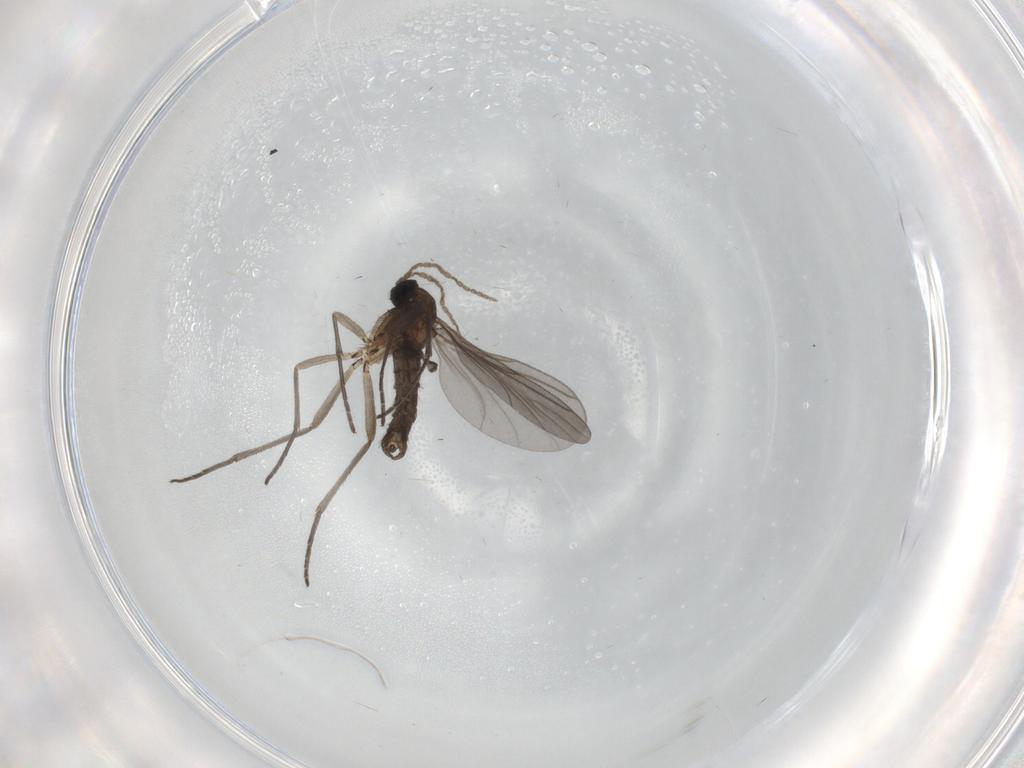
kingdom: Animalia
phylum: Arthropoda
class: Insecta
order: Diptera
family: Sciaridae
